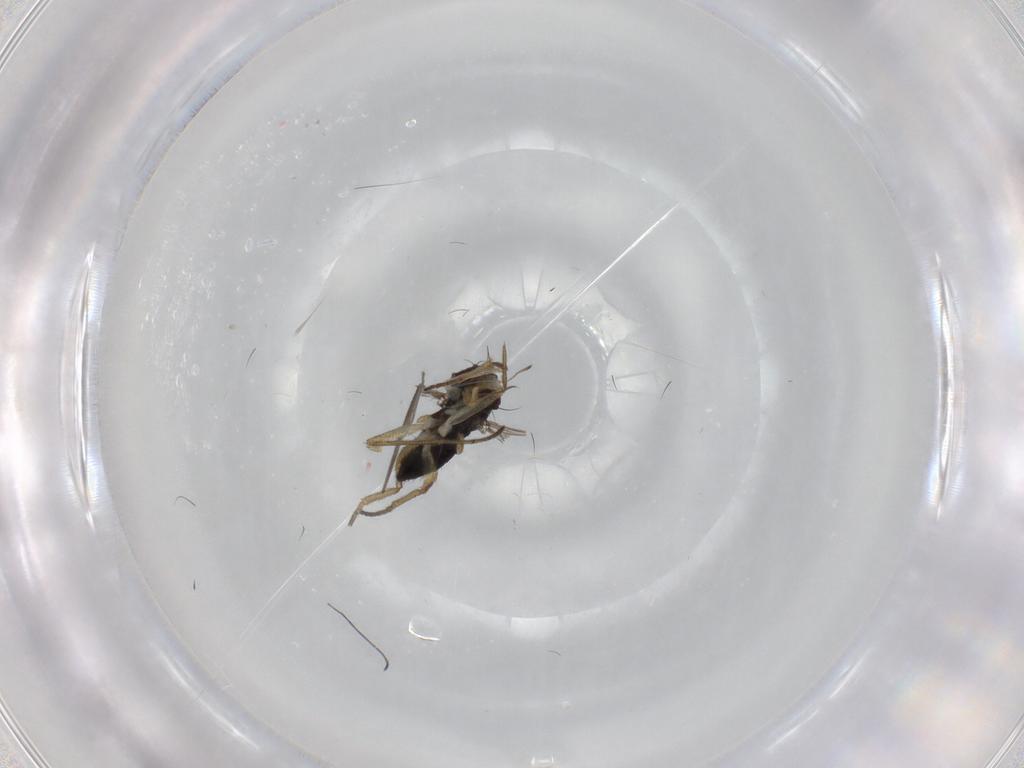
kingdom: Animalia
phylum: Arthropoda
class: Insecta
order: Diptera
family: Dolichopodidae
